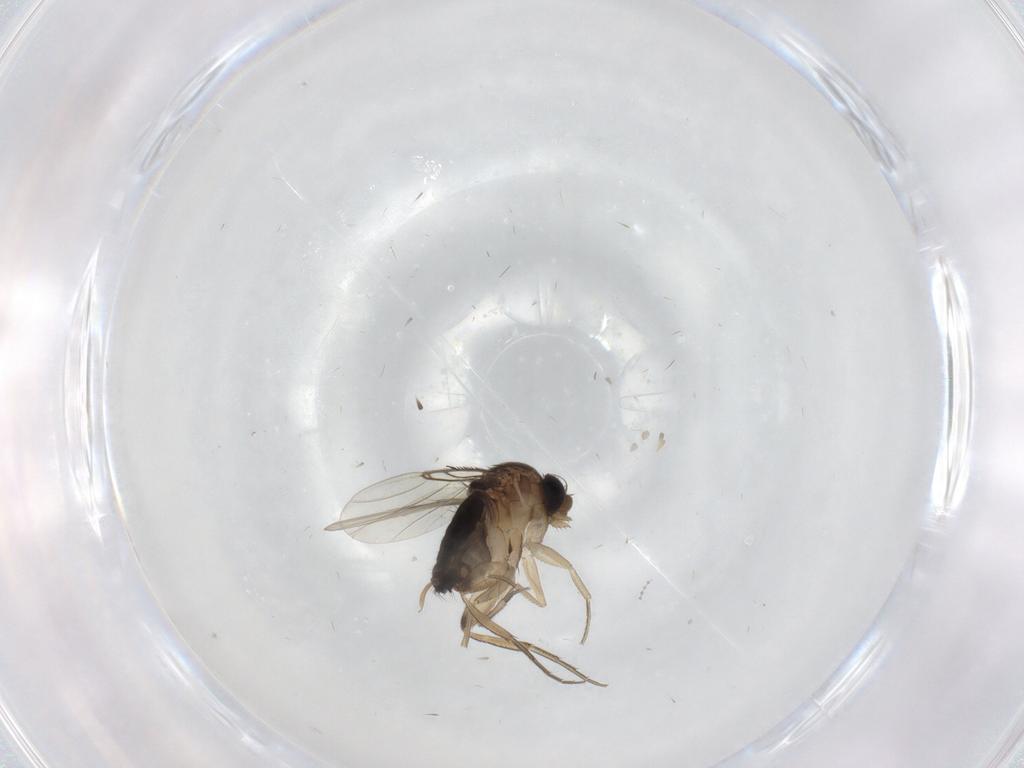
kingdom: Animalia
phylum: Arthropoda
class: Insecta
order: Diptera
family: Phoridae
